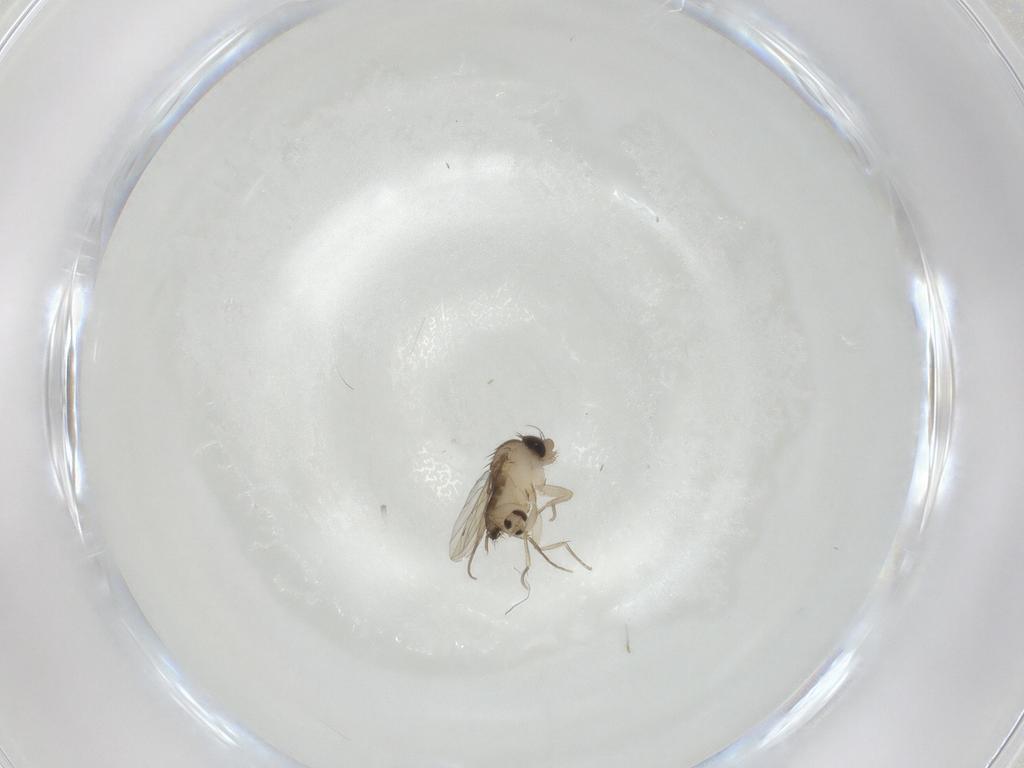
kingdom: Animalia
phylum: Arthropoda
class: Insecta
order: Diptera
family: Phoridae
